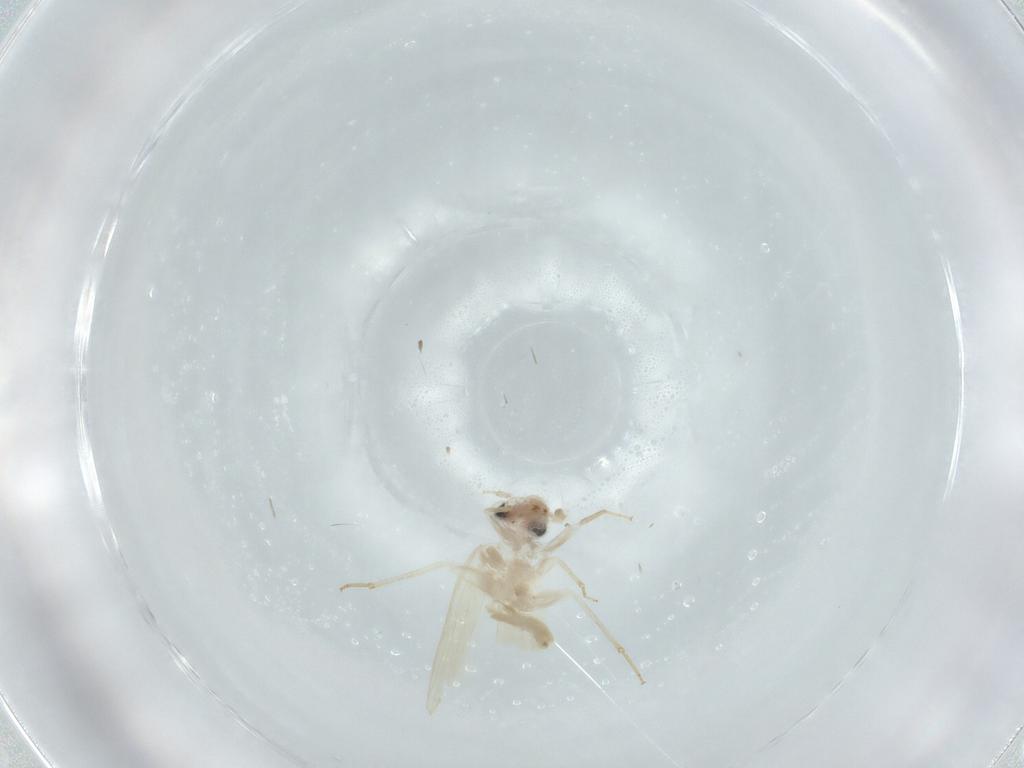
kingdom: Animalia
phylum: Arthropoda
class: Insecta
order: Psocodea
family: Lepidopsocidae
